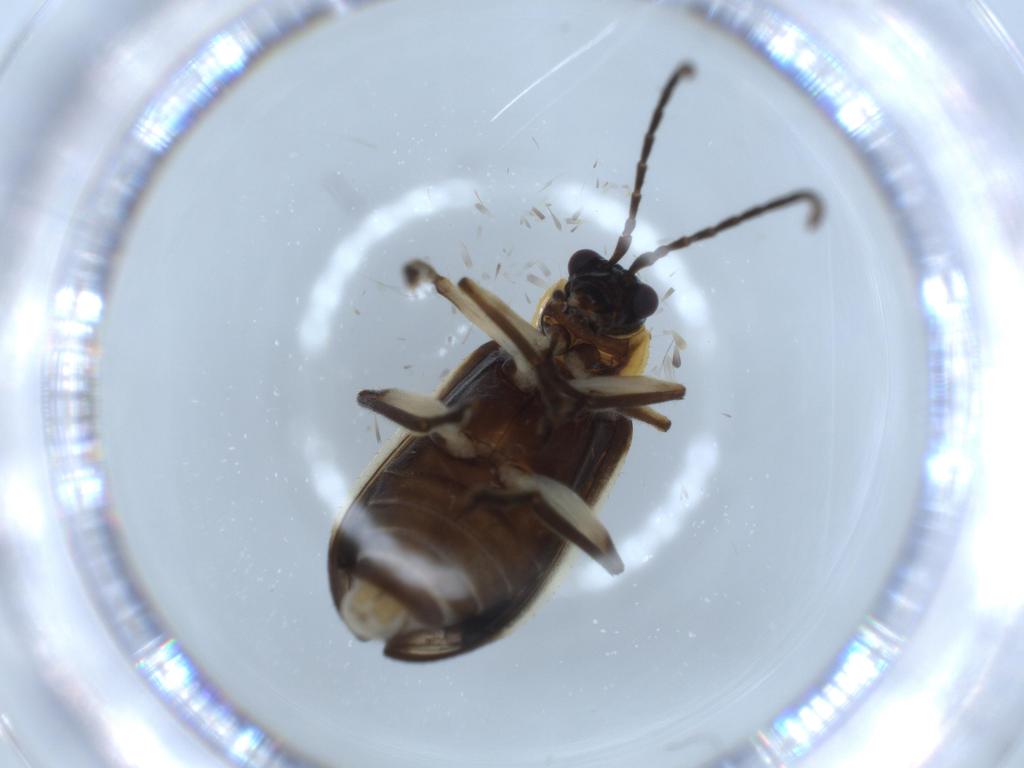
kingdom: Animalia
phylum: Arthropoda
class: Insecta
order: Coleoptera
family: Chrysomelidae
